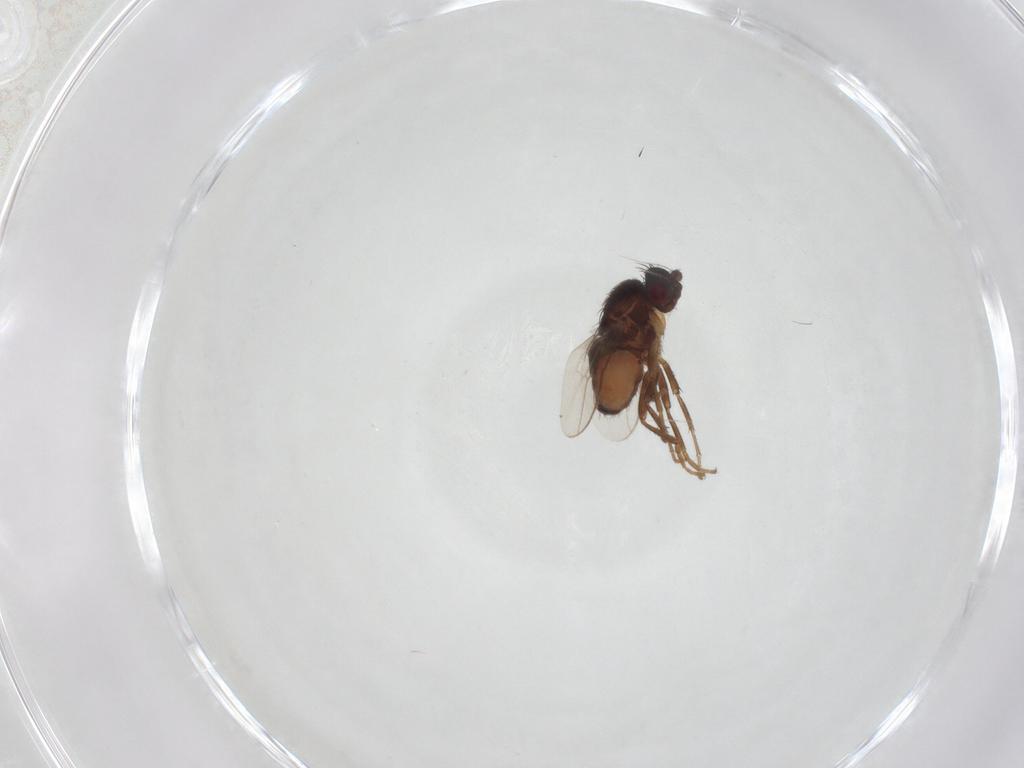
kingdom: Animalia
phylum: Arthropoda
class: Insecta
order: Diptera
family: Sphaeroceridae
